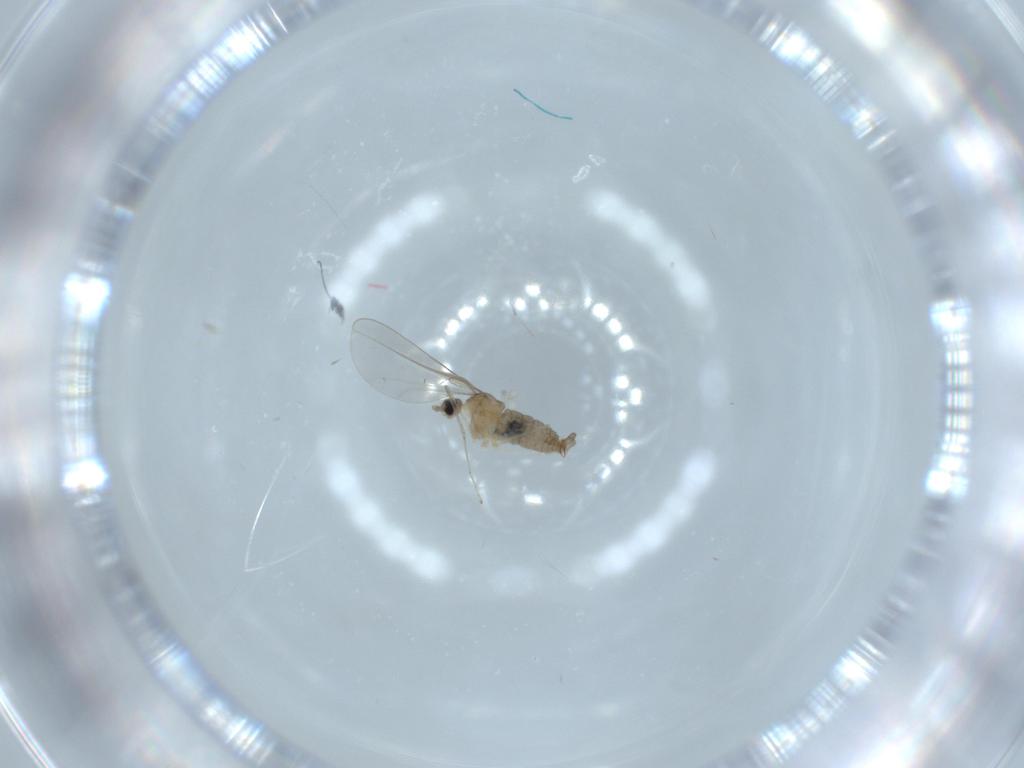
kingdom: Animalia
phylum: Arthropoda
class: Insecta
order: Diptera
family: Cecidomyiidae
